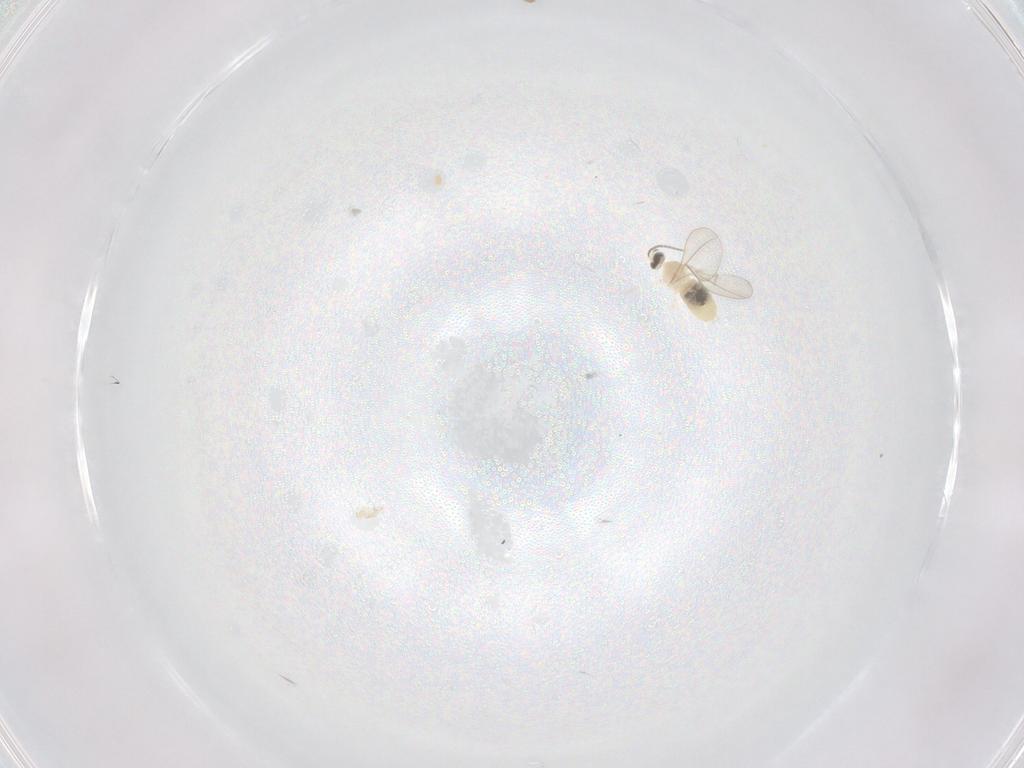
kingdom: Animalia
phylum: Arthropoda
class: Insecta
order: Diptera
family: Cecidomyiidae
